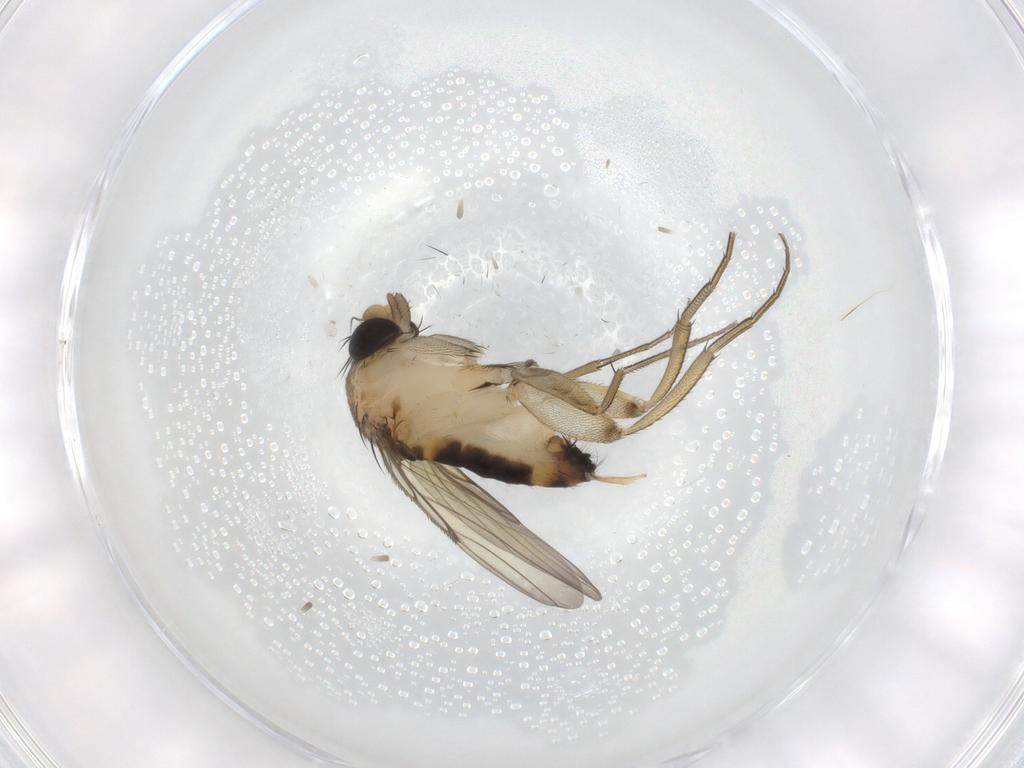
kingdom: Animalia
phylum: Arthropoda
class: Insecta
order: Diptera
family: Phoridae
